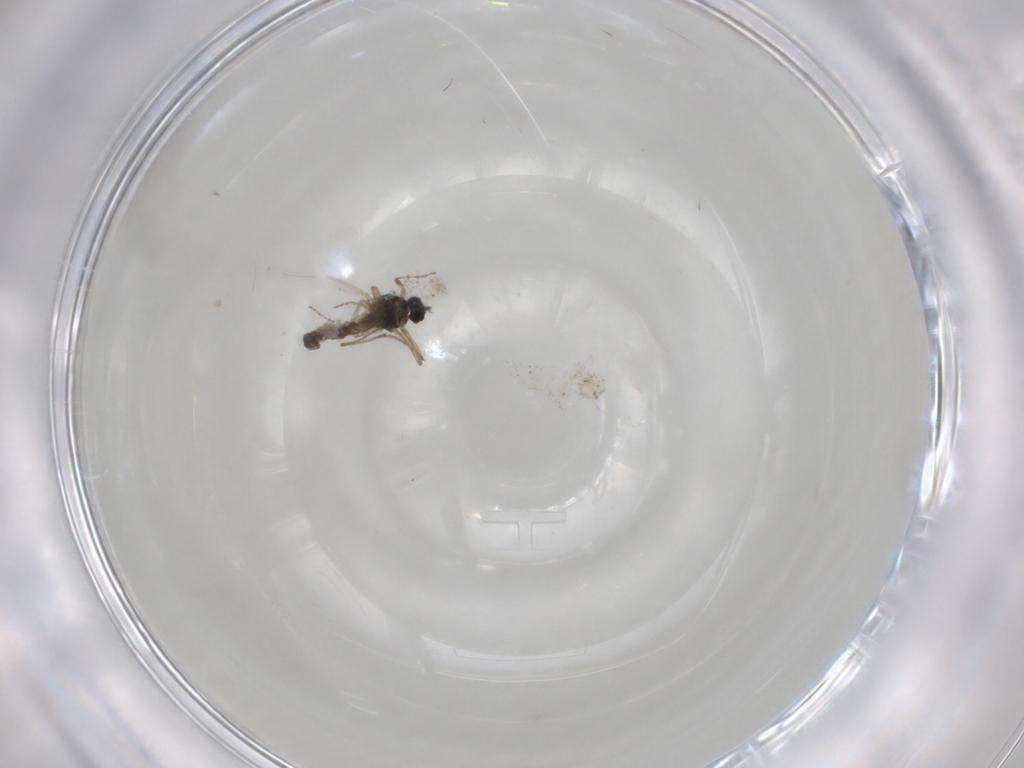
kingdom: Animalia
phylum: Arthropoda
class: Insecta
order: Diptera
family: Ceratopogonidae
